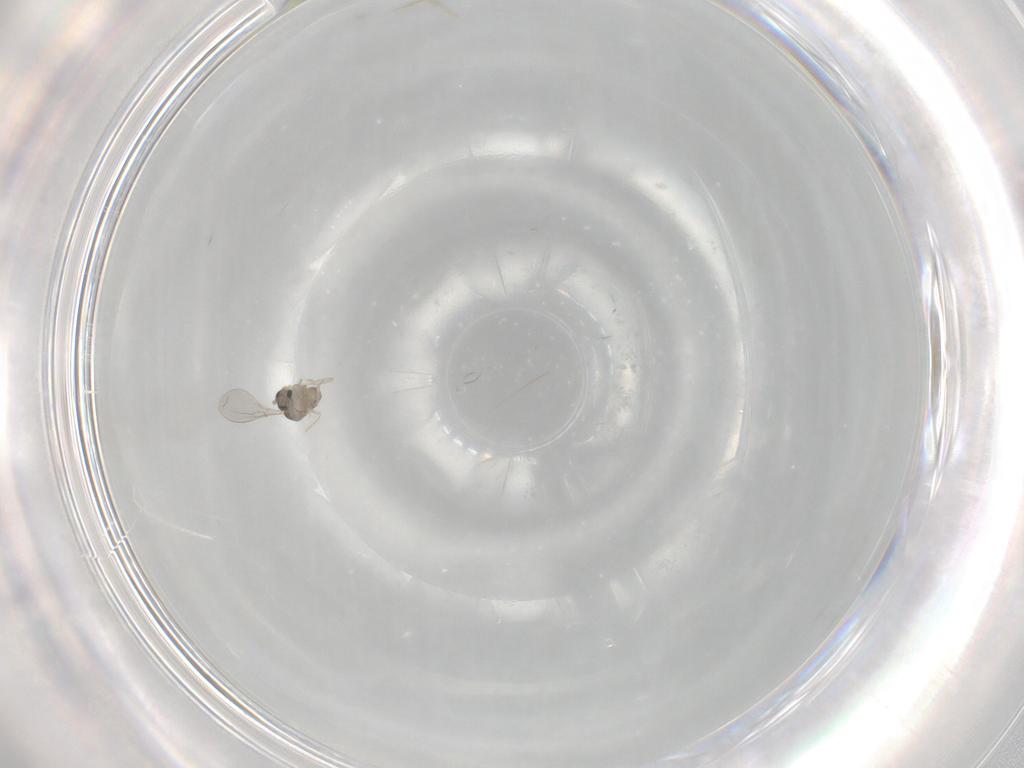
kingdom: Animalia
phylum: Arthropoda
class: Insecta
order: Diptera
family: Cecidomyiidae
